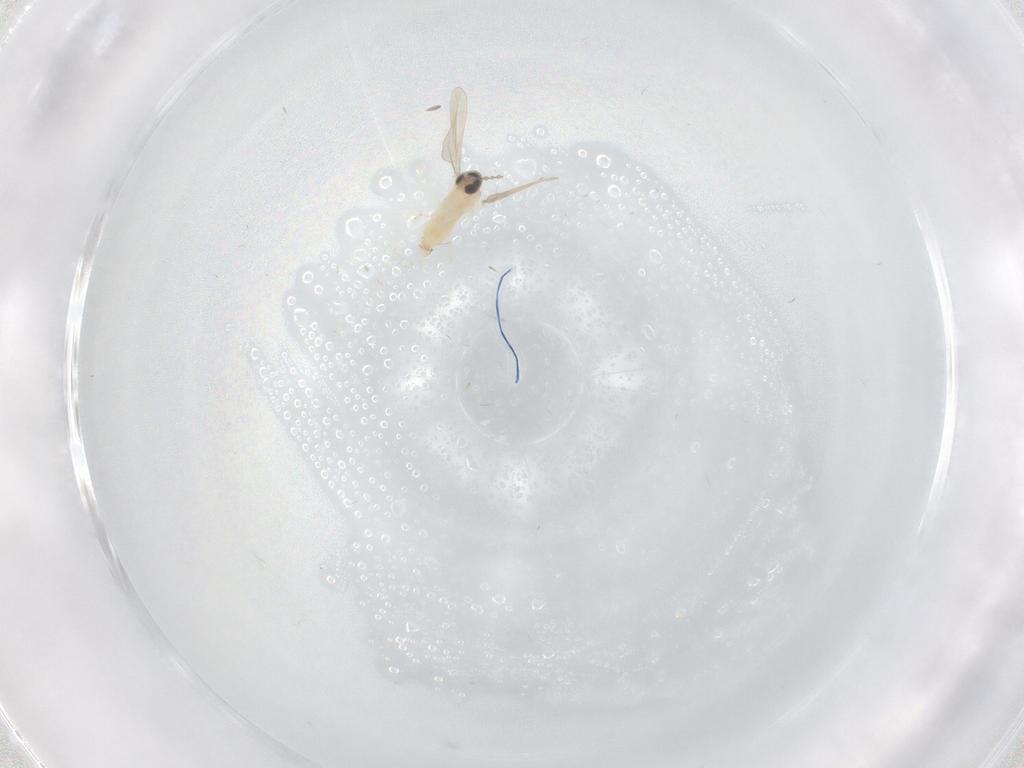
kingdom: Animalia
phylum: Arthropoda
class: Insecta
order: Diptera
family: Cecidomyiidae
